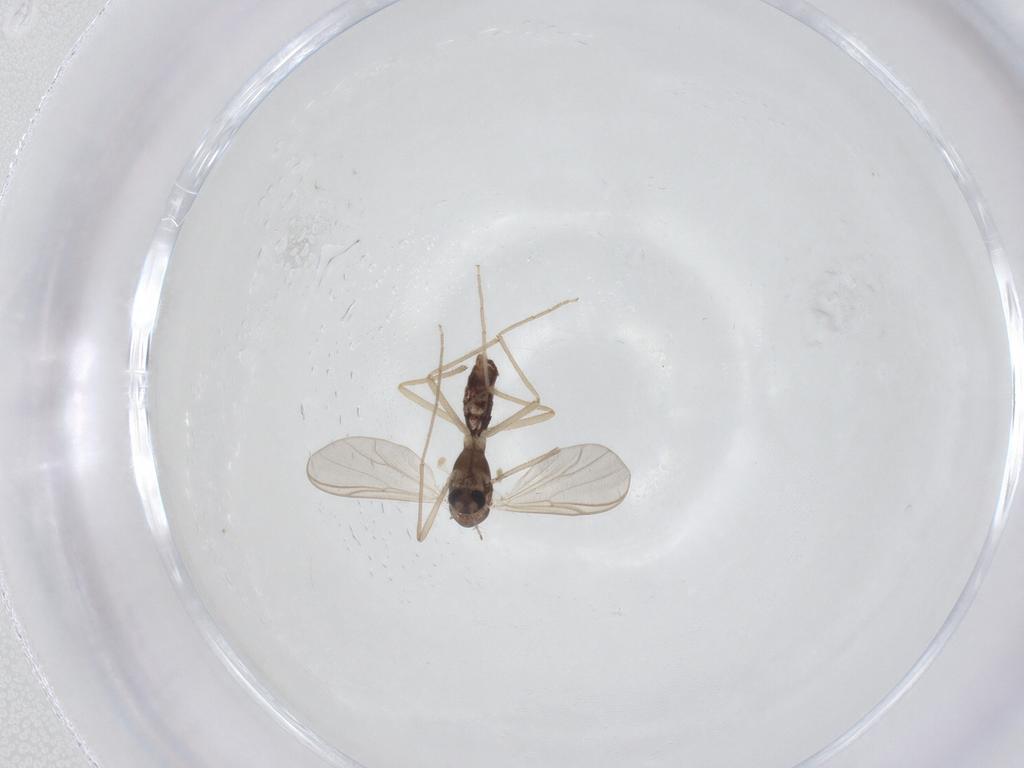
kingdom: Animalia
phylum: Arthropoda
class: Insecta
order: Diptera
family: Chironomidae
